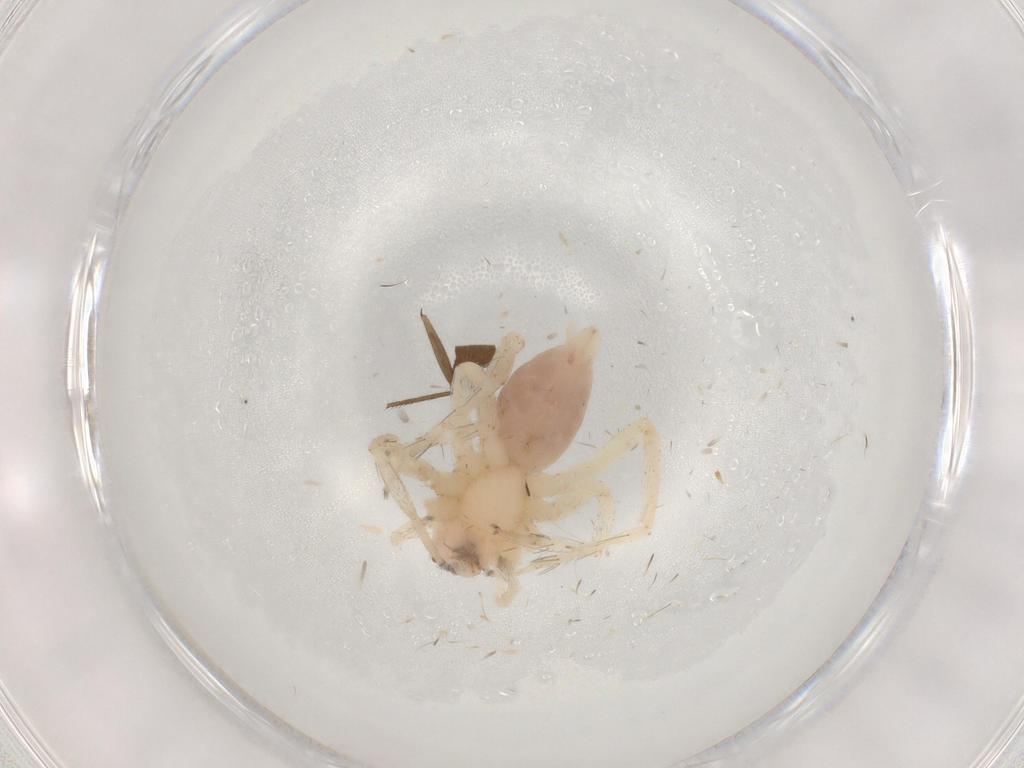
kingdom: Animalia
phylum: Arthropoda
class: Arachnida
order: Araneae
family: Anyphaenidae
